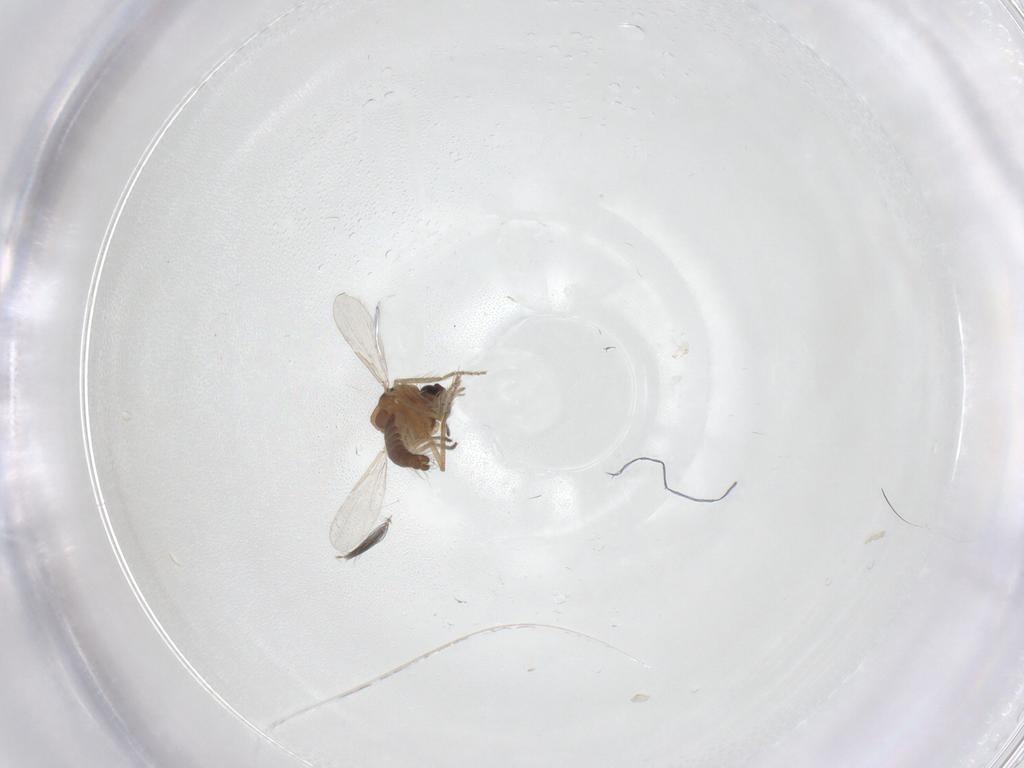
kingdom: Animalia
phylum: Arthropoda
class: Insecta
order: Diptera
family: Ceratopogonidae
